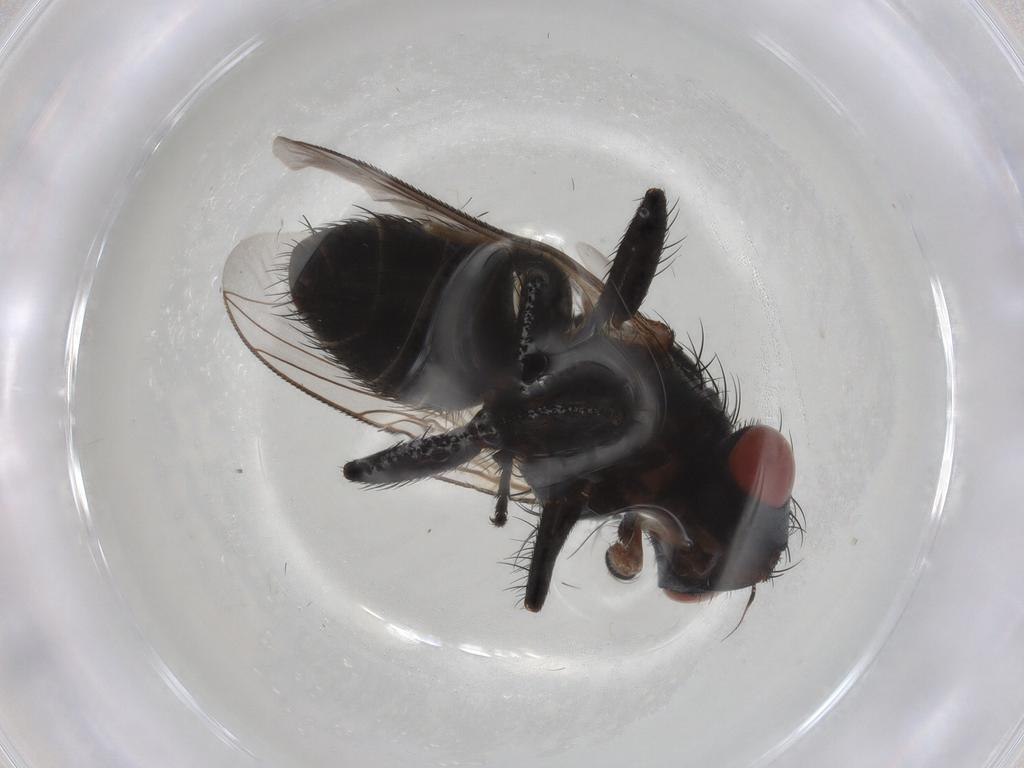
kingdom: Animalia
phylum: Arthropoda
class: Insecta
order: Diptera
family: Sarcophagidae
